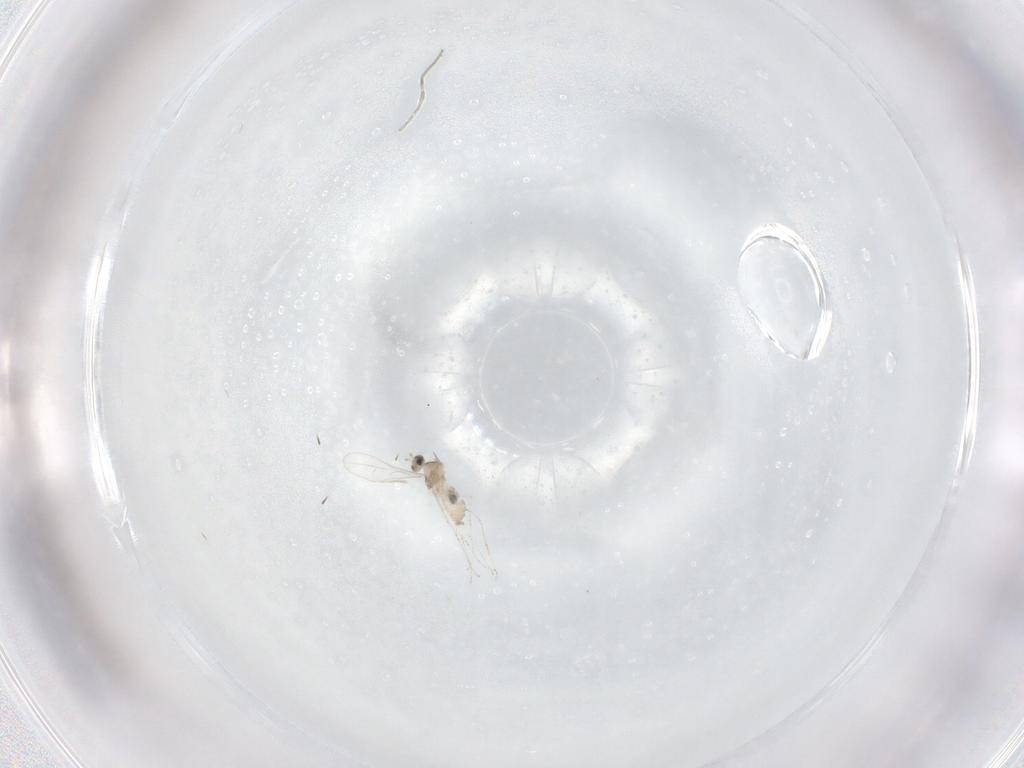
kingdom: Animalia
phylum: Arthropoda
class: Insecta
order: Diptera
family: Cecidomyiidae
